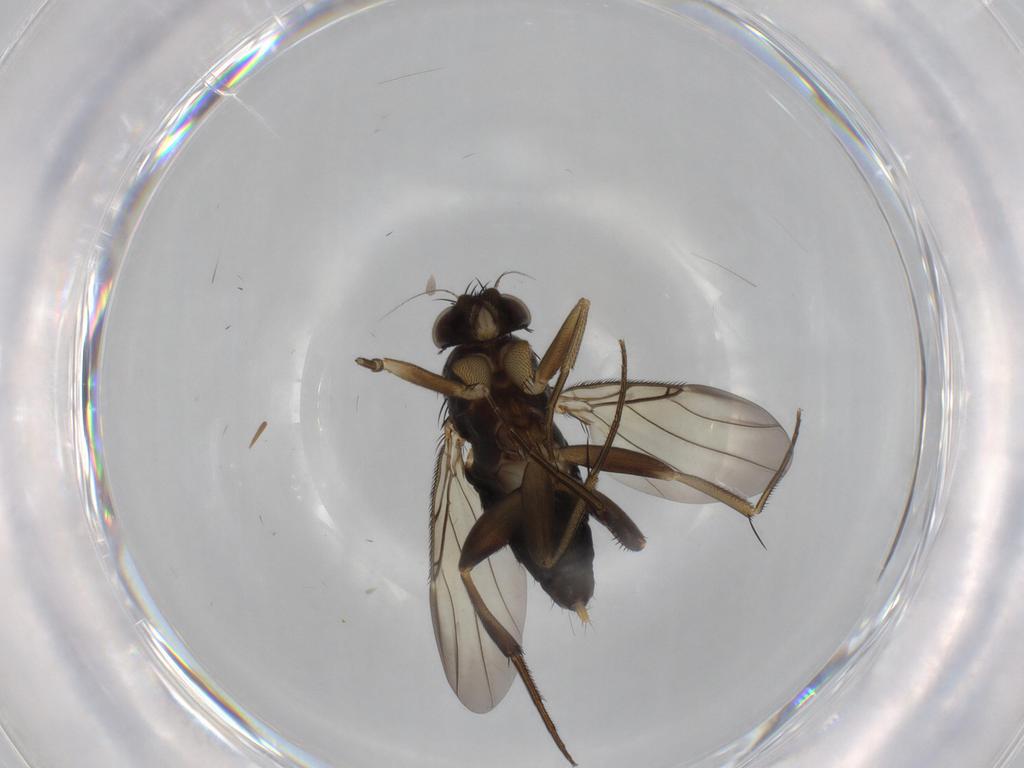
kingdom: Animalia
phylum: Arthropoda
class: Insecta
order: Diptera
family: Sciaridae
